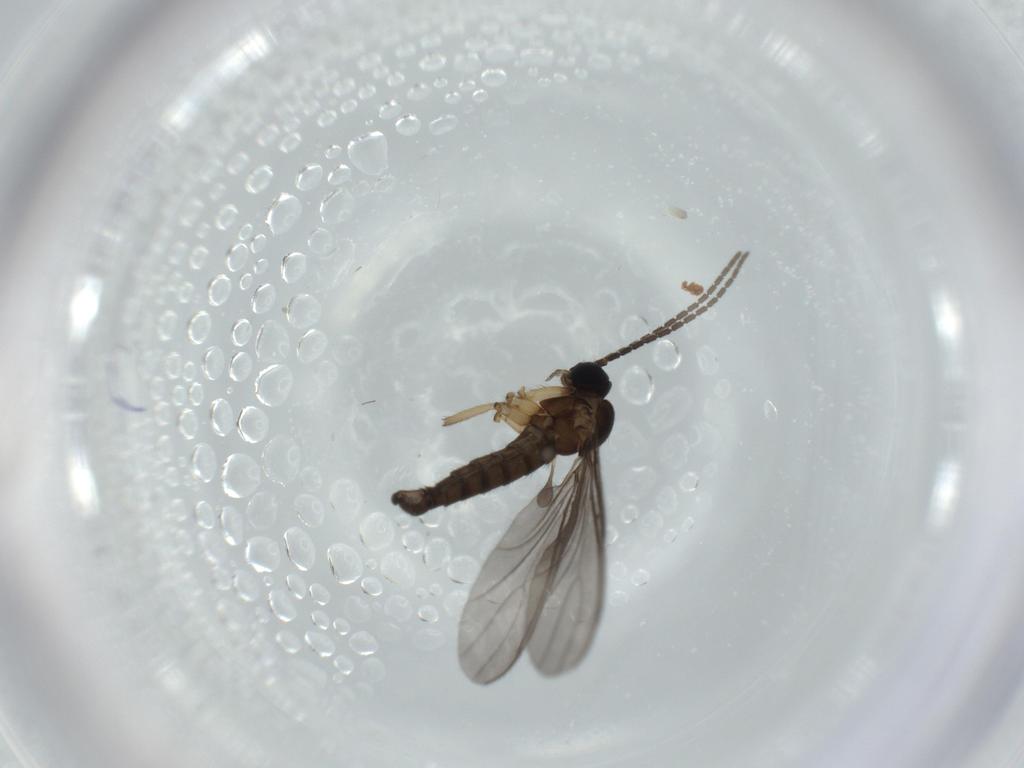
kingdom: Animalia
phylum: Arthropoda
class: Insecta
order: Diptera
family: Sciaridae
